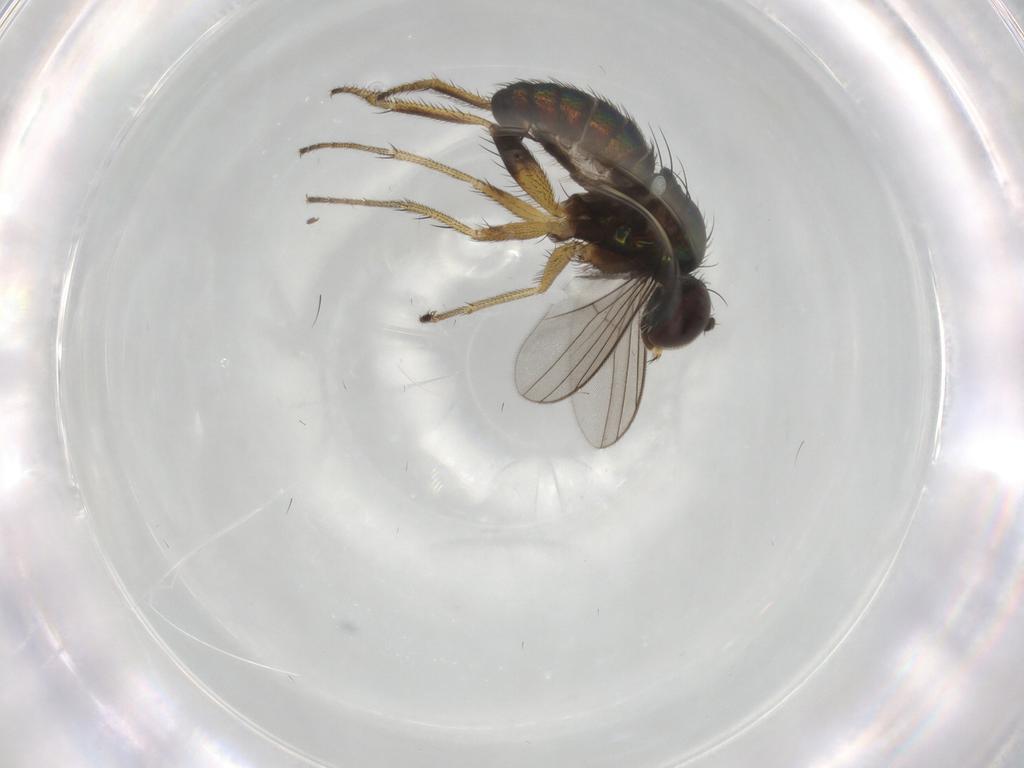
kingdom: Animalia
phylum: Arthropoda
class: Insecta
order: Diptera
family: Dolichopodidae
